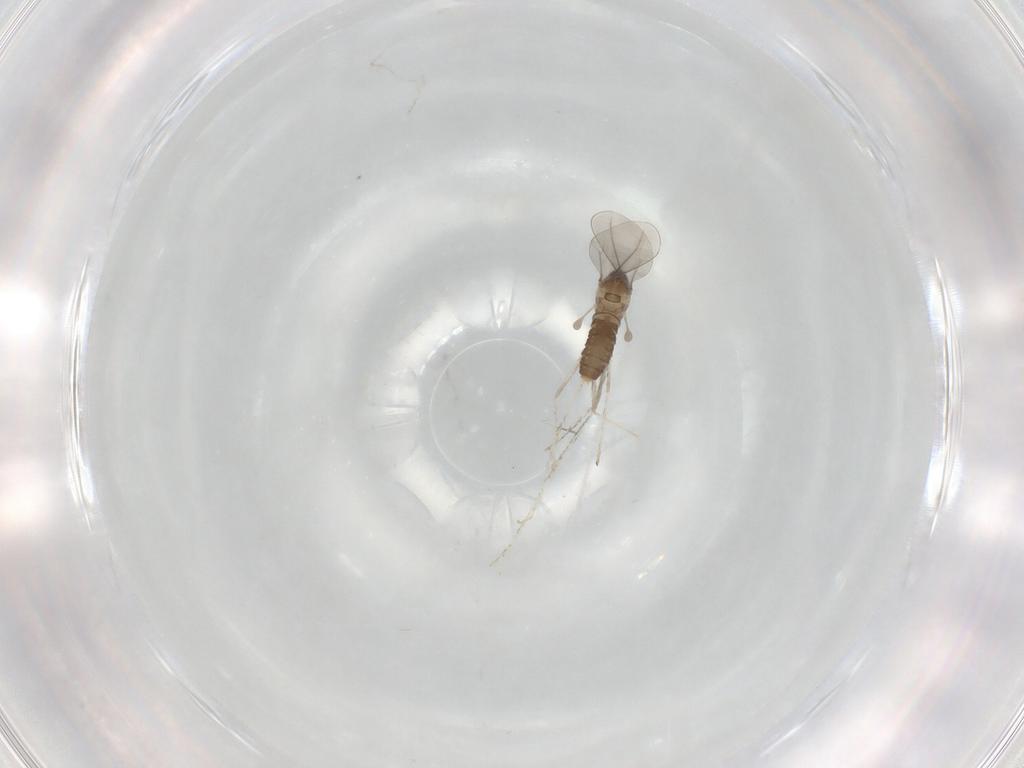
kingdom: Animalia
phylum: Arthropoda
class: Insecta
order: Diptera
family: Cecidomyiidae
